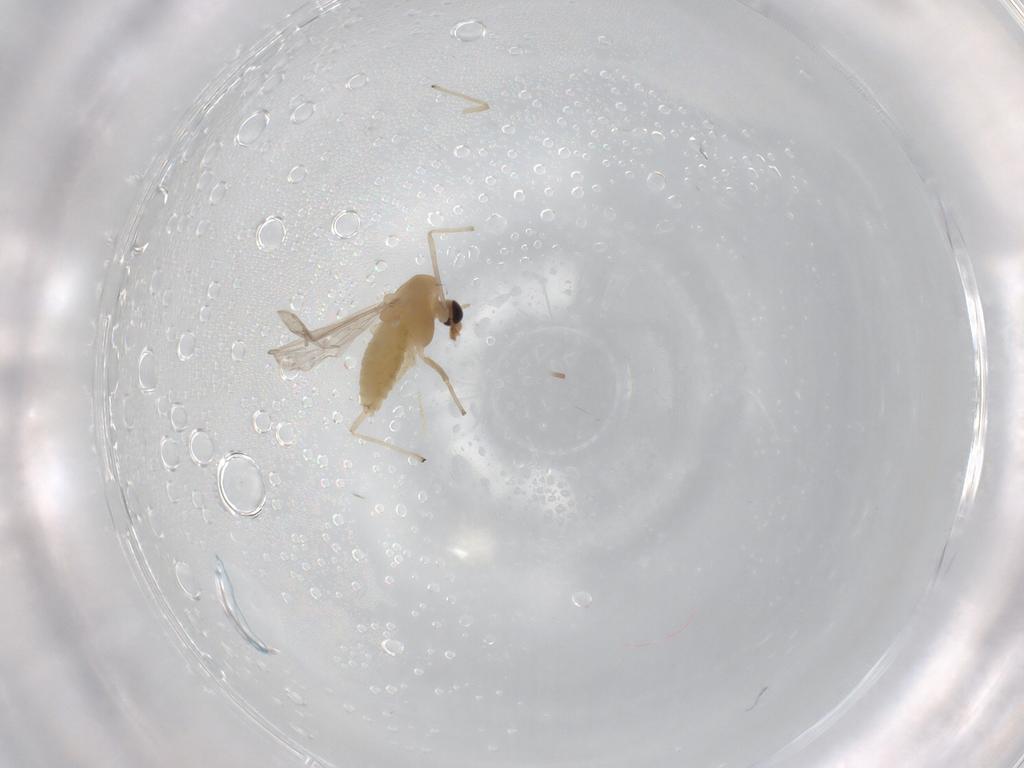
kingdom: Animalia
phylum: Arthropoda
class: Insecta
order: Diptera
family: Chironomidae
